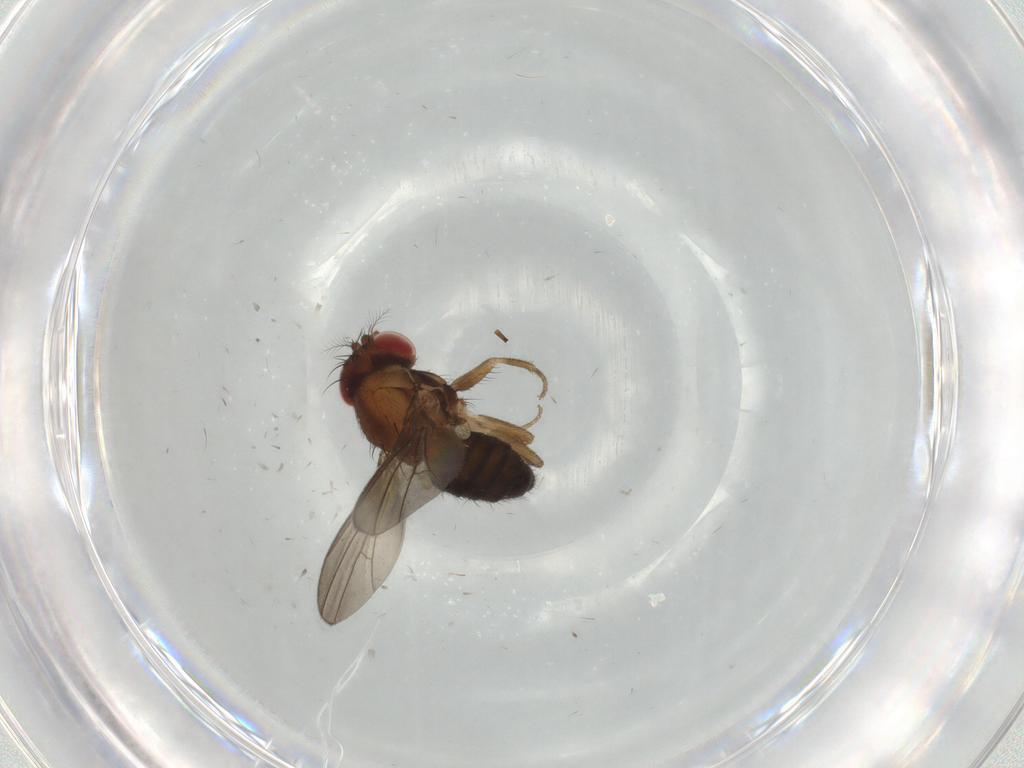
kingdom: Animalia
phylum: Arthropoda
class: Insecta
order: Diptera
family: Drosophilidae
